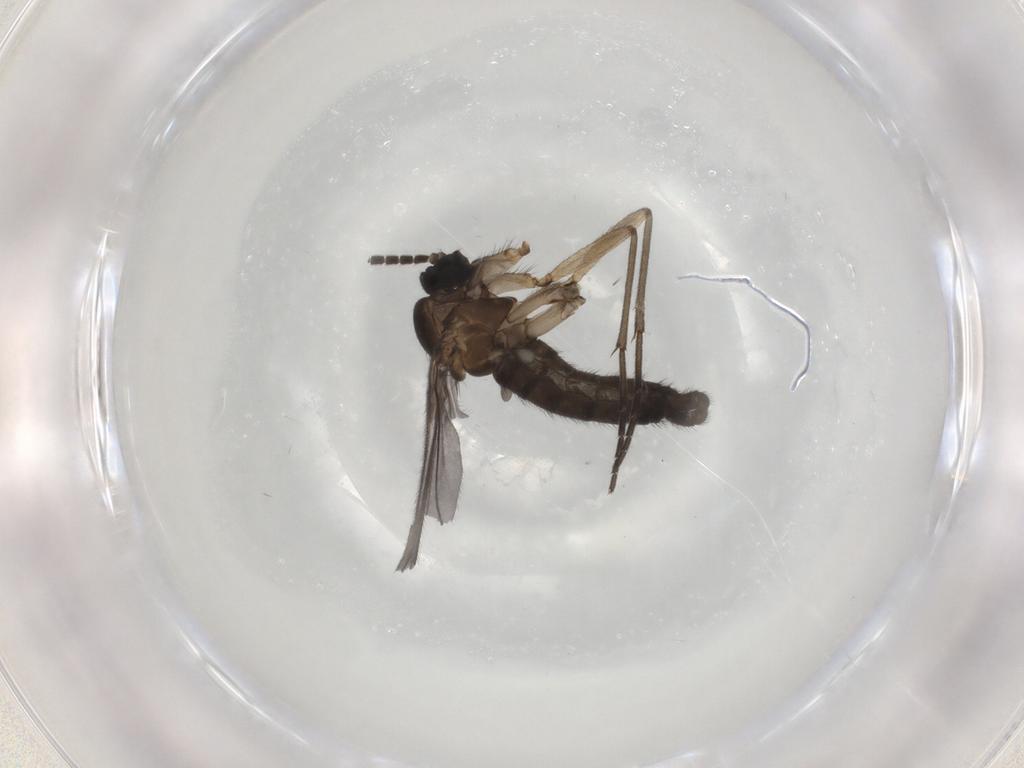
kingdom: Animalia
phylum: Arthropoda
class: Insecta
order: Diptera
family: Sciaridae
